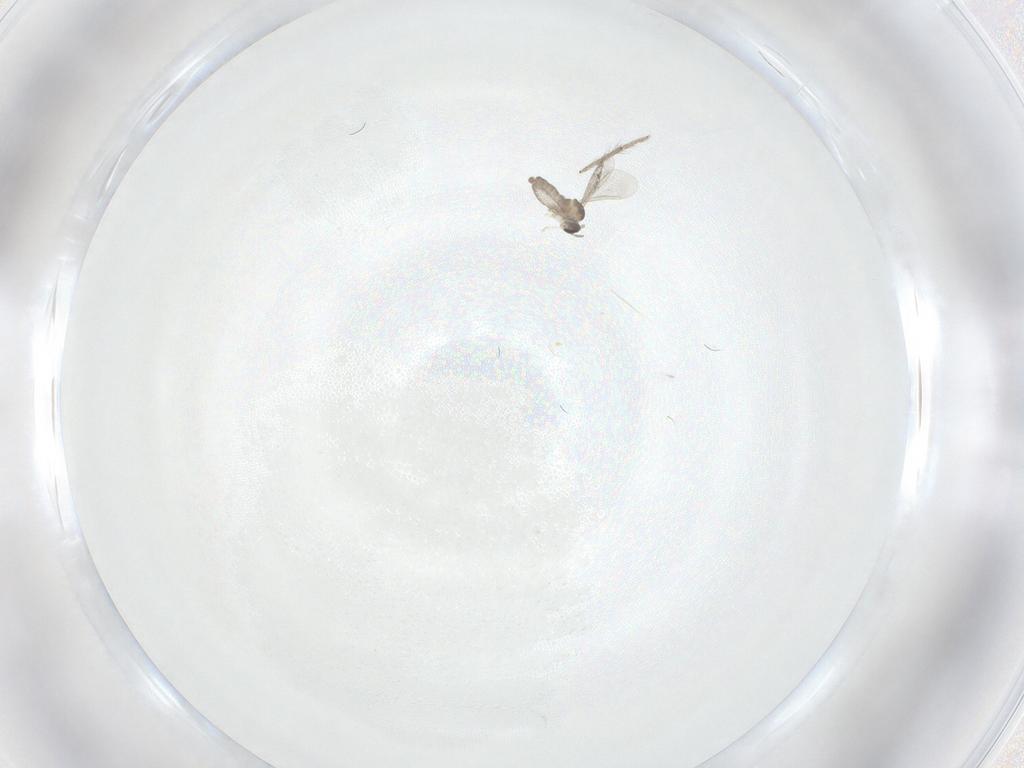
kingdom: Animalia
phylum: Arthropoda
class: Insecta
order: Diptera
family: Cecidomyiidae
